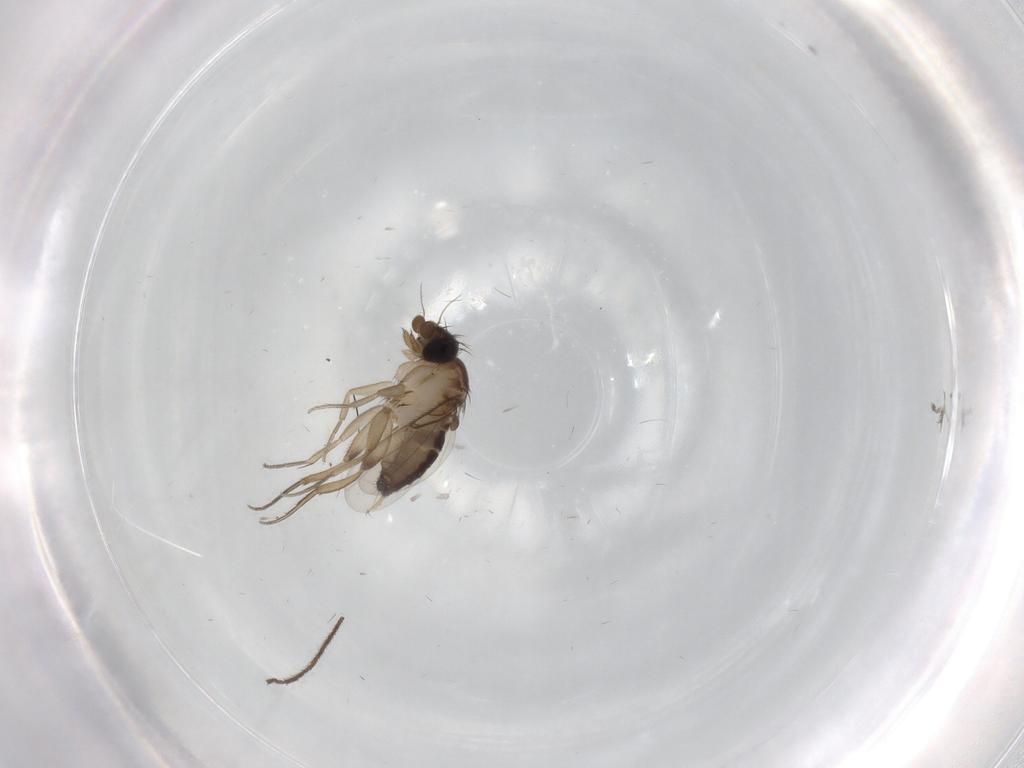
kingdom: Animalia
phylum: Arthropoda
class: Insecta
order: Diptera
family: Phoridae
